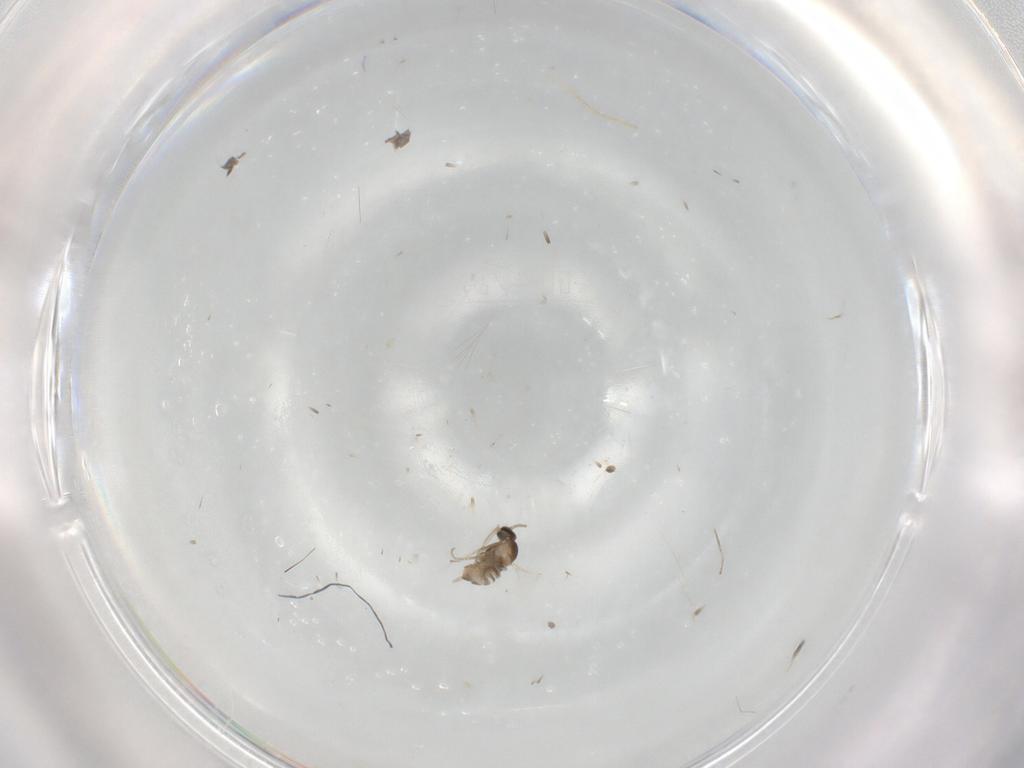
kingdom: Animalia
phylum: Arthropoda
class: Insecta
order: Diptera
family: Cecidomyiidae
